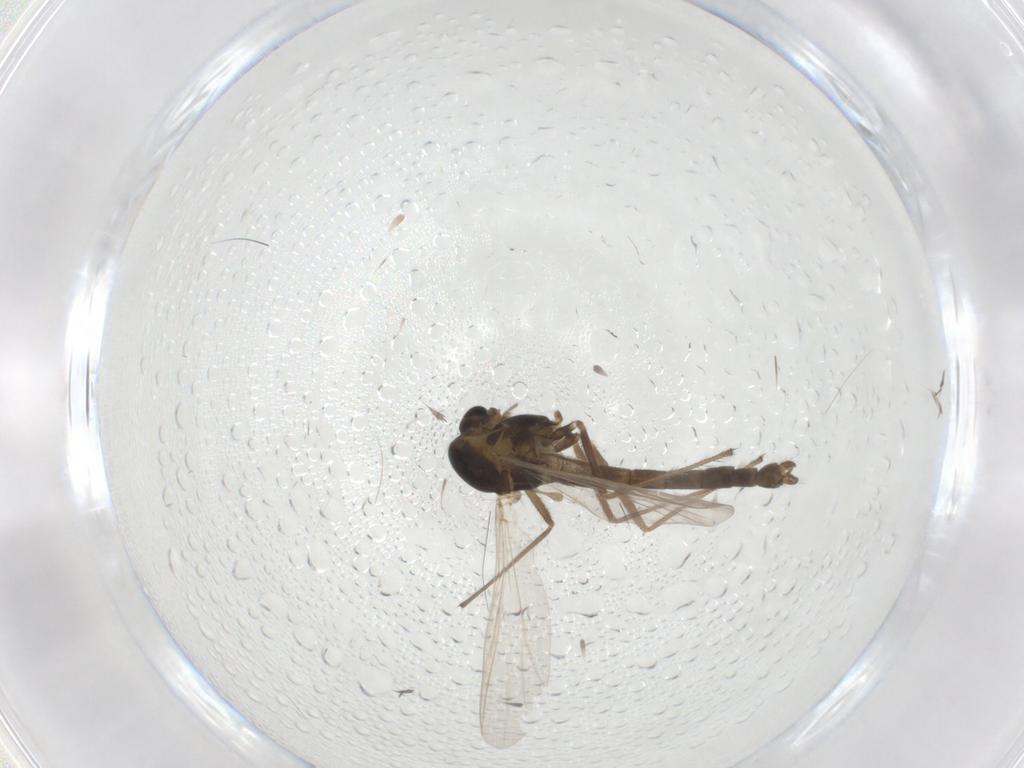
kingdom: Animalia
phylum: Arthropoda
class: Insecta
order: Diptera
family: Chironomidae
